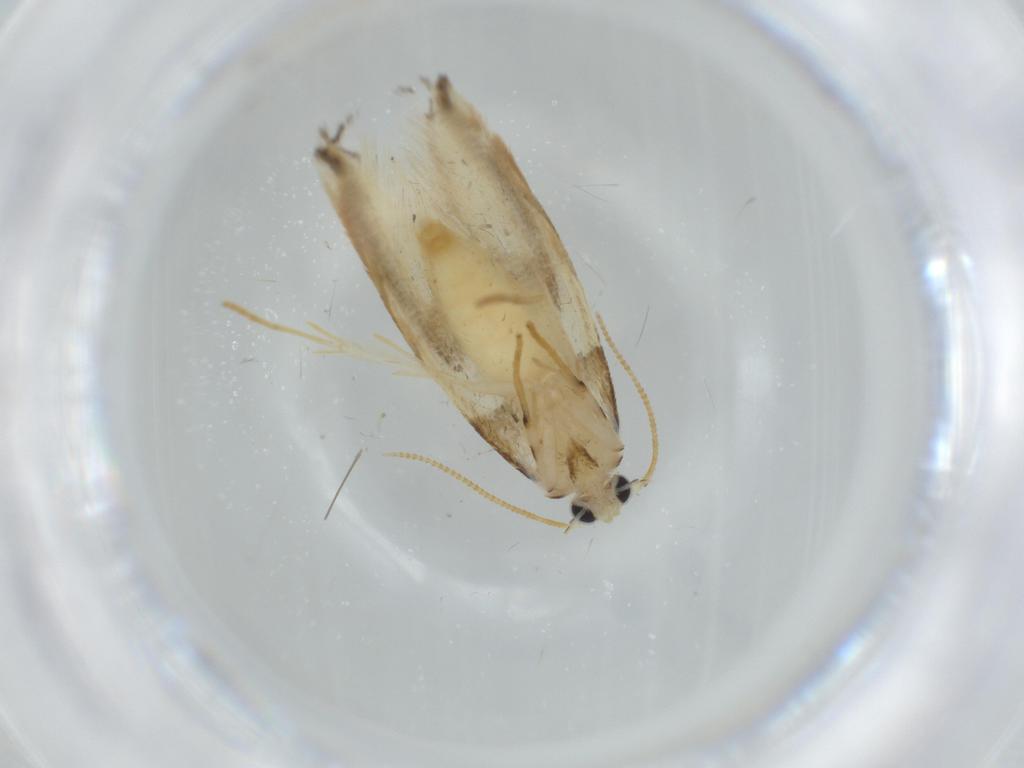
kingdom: Animalia
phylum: Arthropoda
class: Insecta
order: Lepidoptera
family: Tineidae
